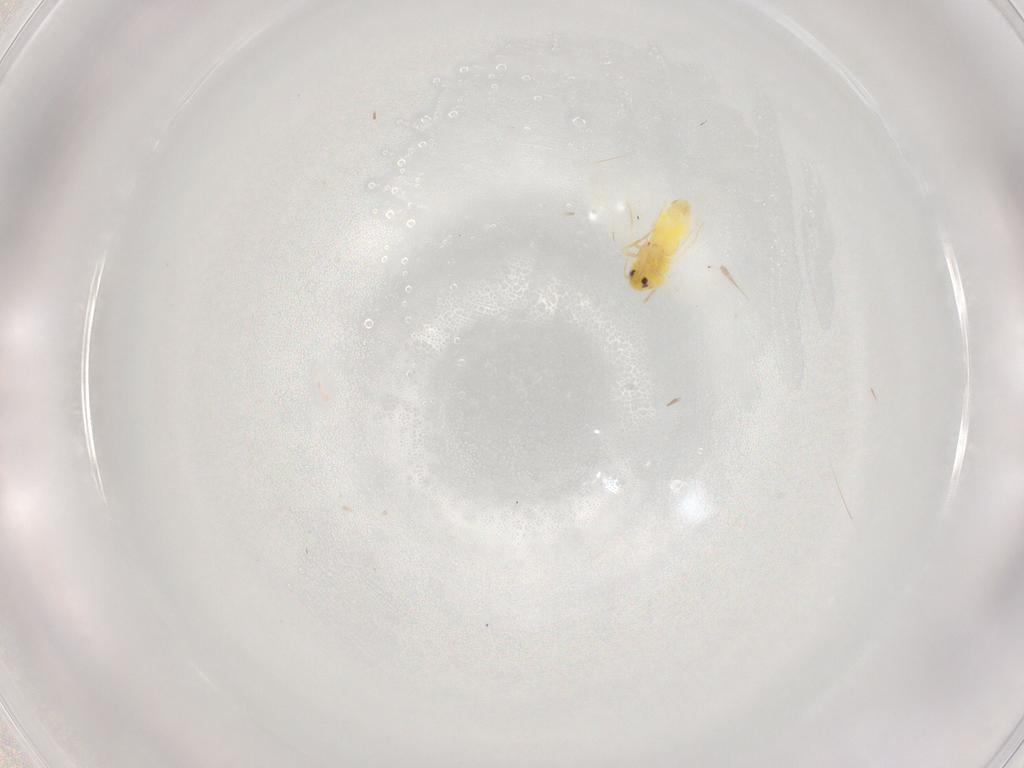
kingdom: Animalia
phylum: Arthropoda
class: Insecta
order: Hemiptera
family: Aleyrodidae
